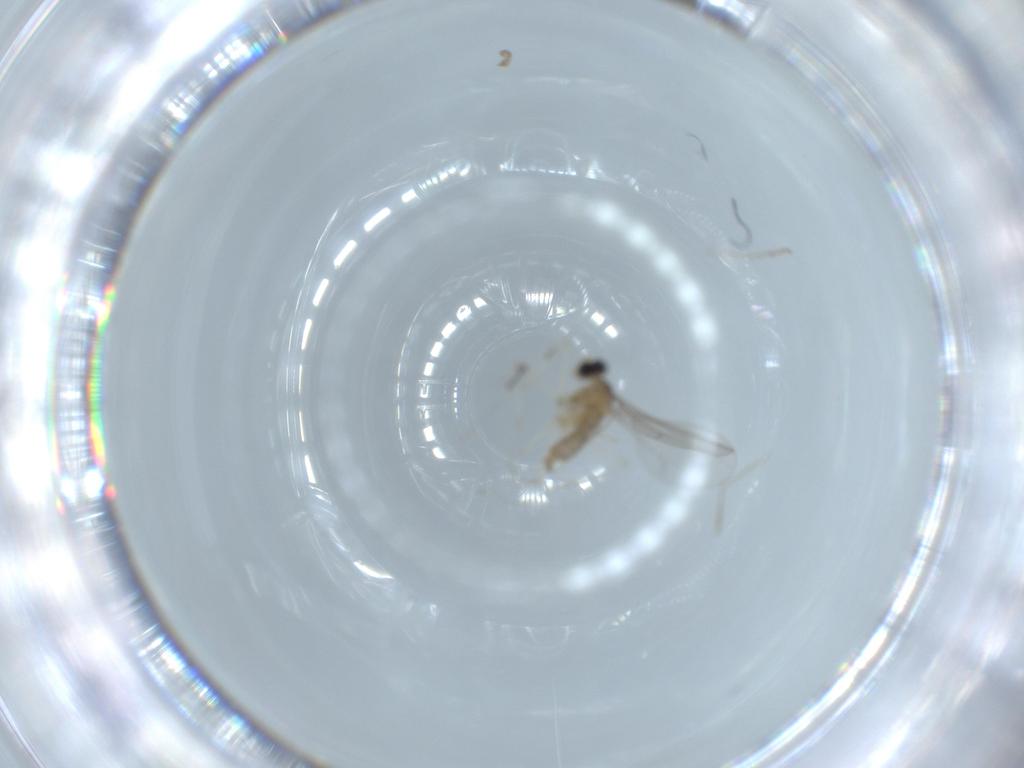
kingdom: Animalia
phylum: Arthropoda
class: Insecta
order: Diptera
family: Cecidomyiidae
